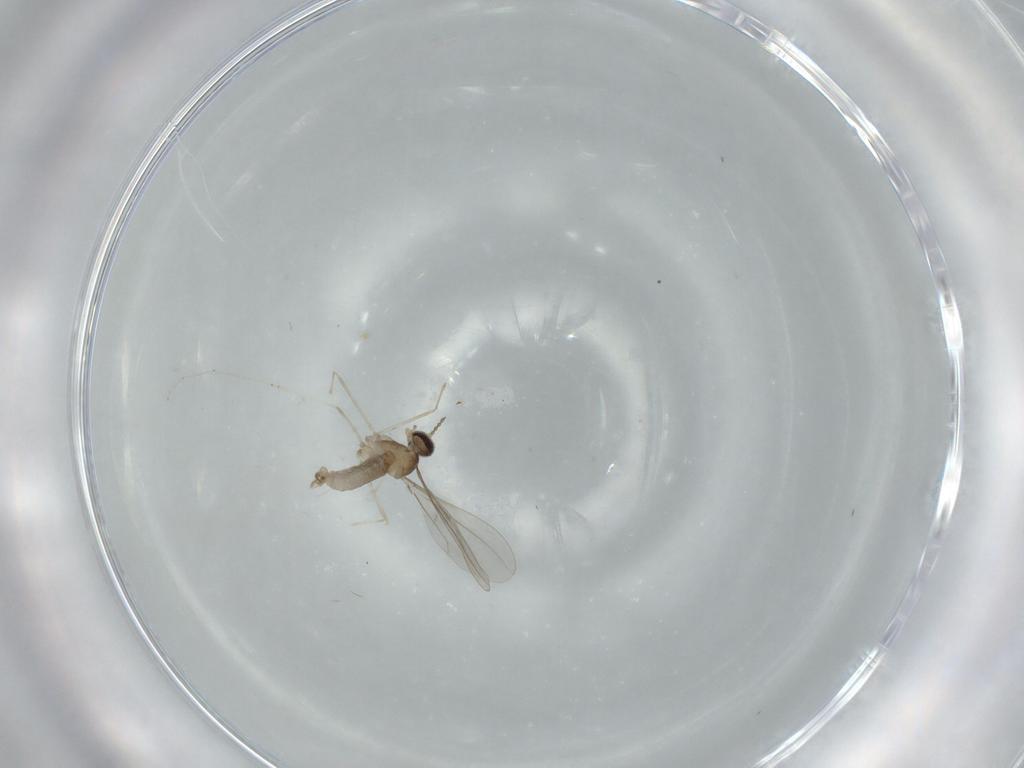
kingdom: Animalia
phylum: Arthropoda
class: Insecta
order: Diptera
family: Cecidomyiidae
